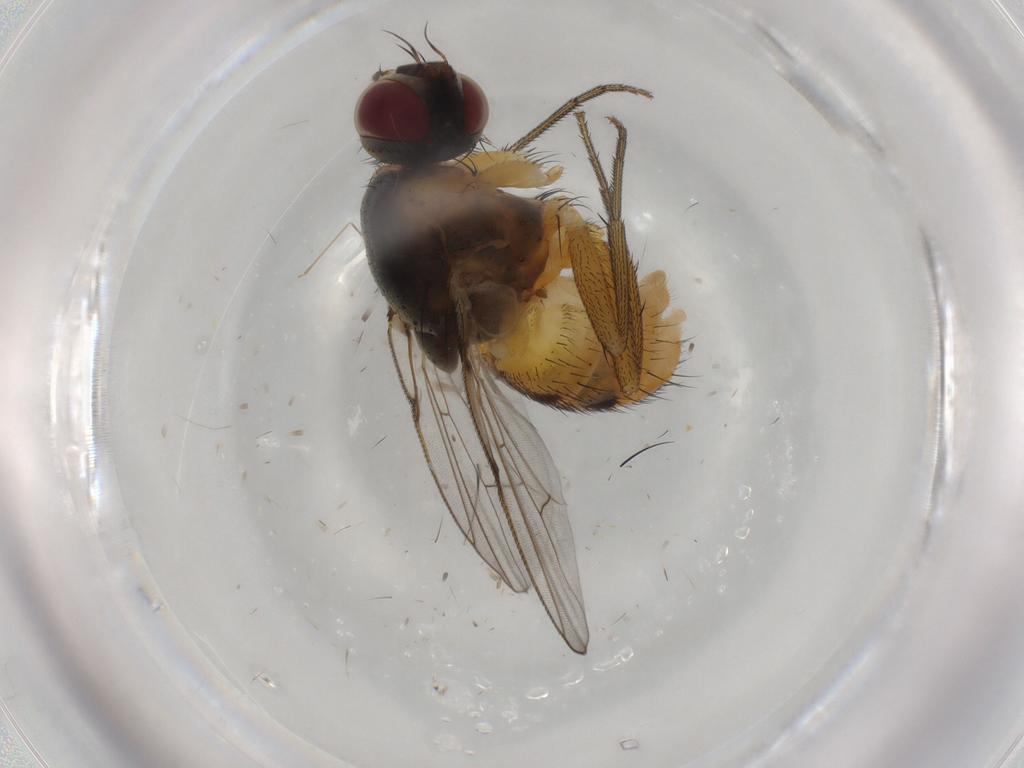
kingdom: Animalia
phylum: Arthropoda
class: Insecta
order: Diptera
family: Muscidae
